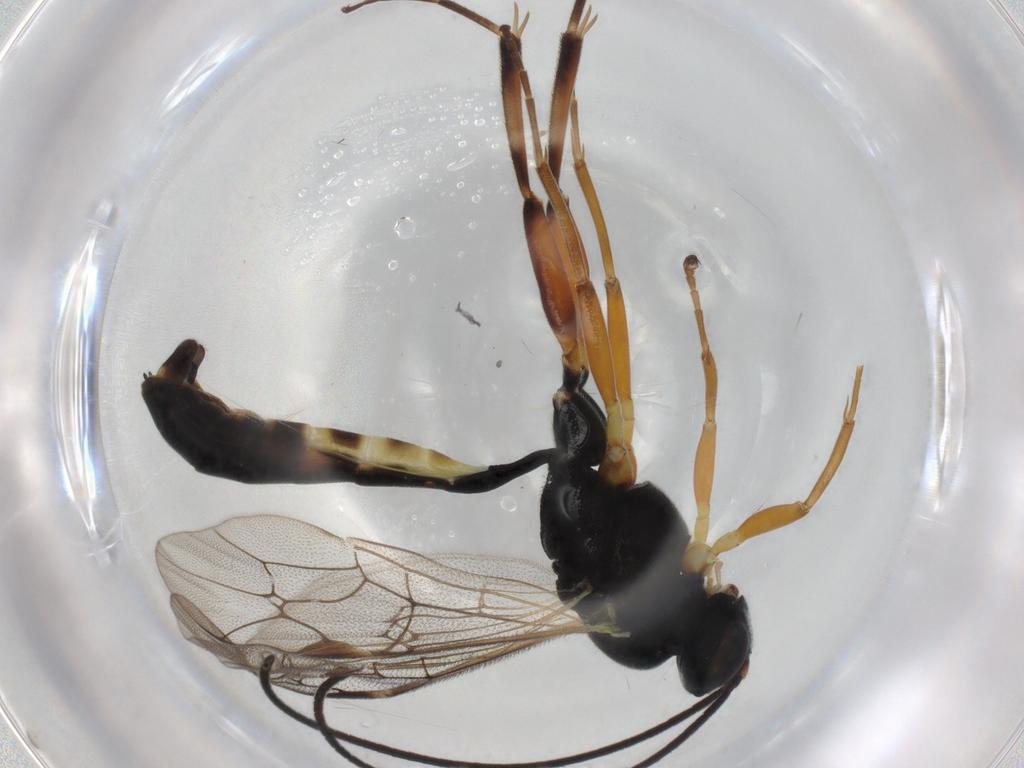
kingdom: Animalia
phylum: Arthropoda
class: Insecta
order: Hymenoptera
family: Ichneumonidae
